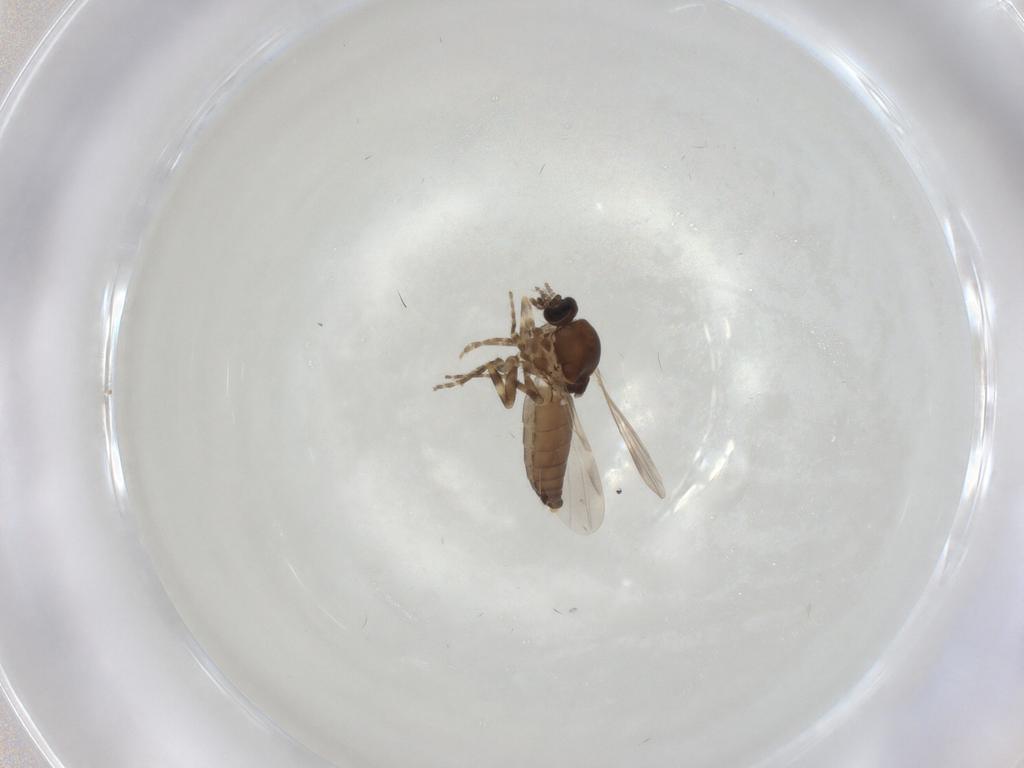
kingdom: Animalia
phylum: Arthropoda
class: Insecta
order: Diptera
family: Ceratopogonidae
